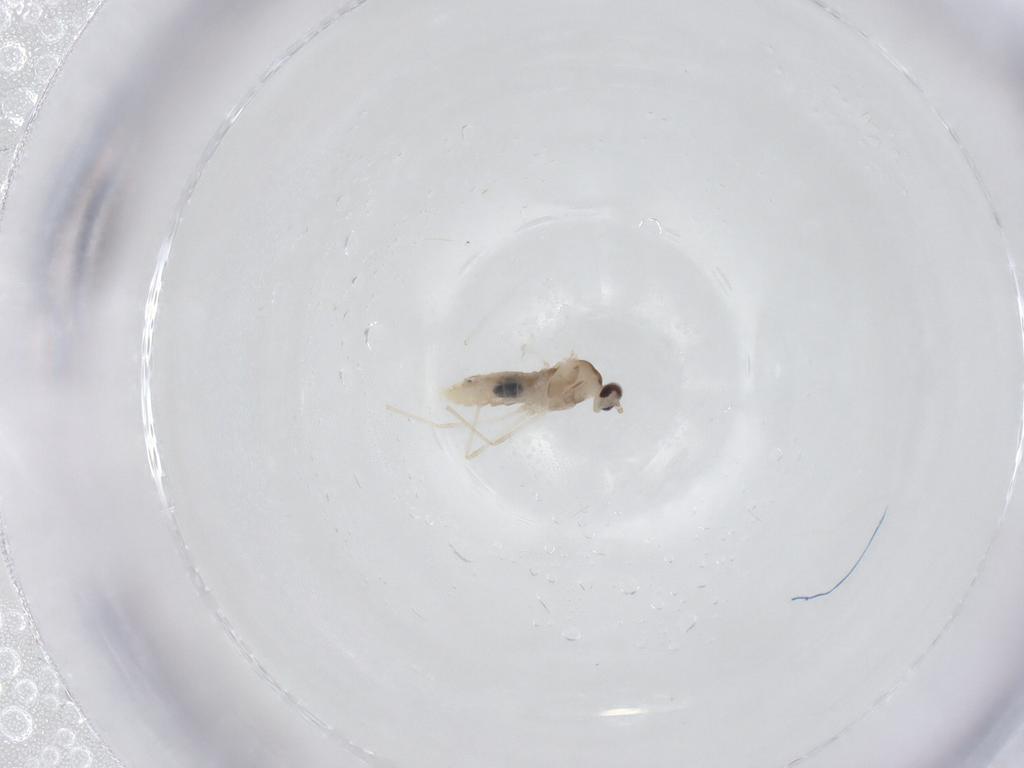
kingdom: Animalia
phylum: Arthropoda
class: Insecta
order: Diptera
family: Cecidomyiidae
